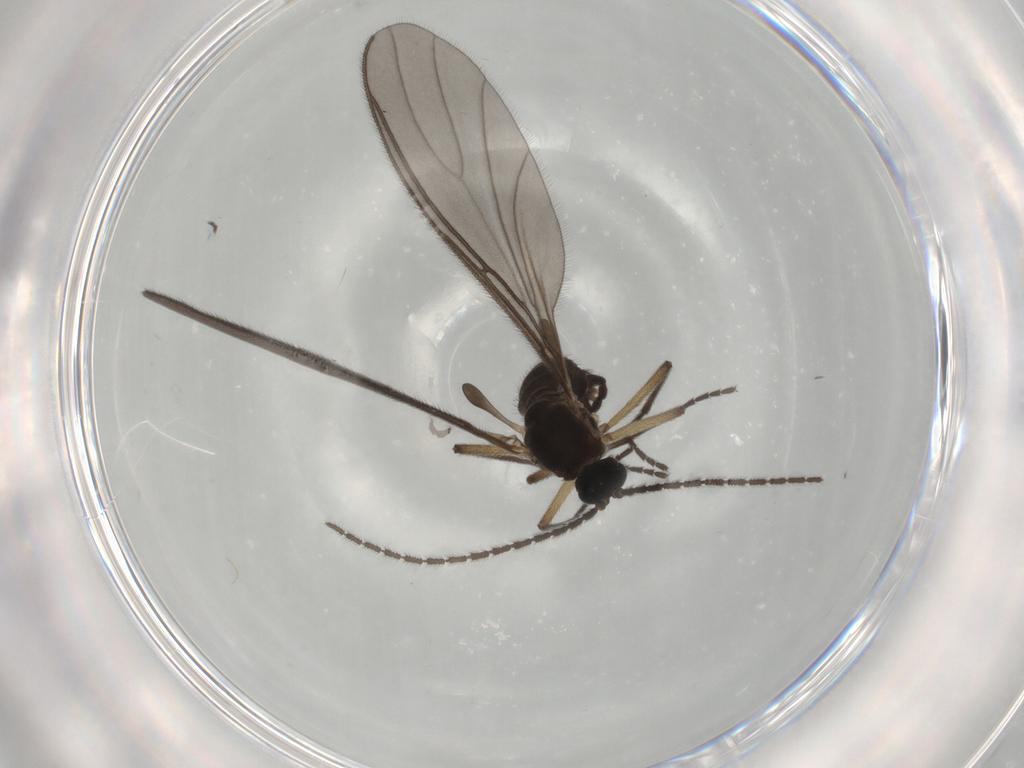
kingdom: Animalia
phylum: Arthropoda
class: Insecta
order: Diptera
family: Sciaridae
